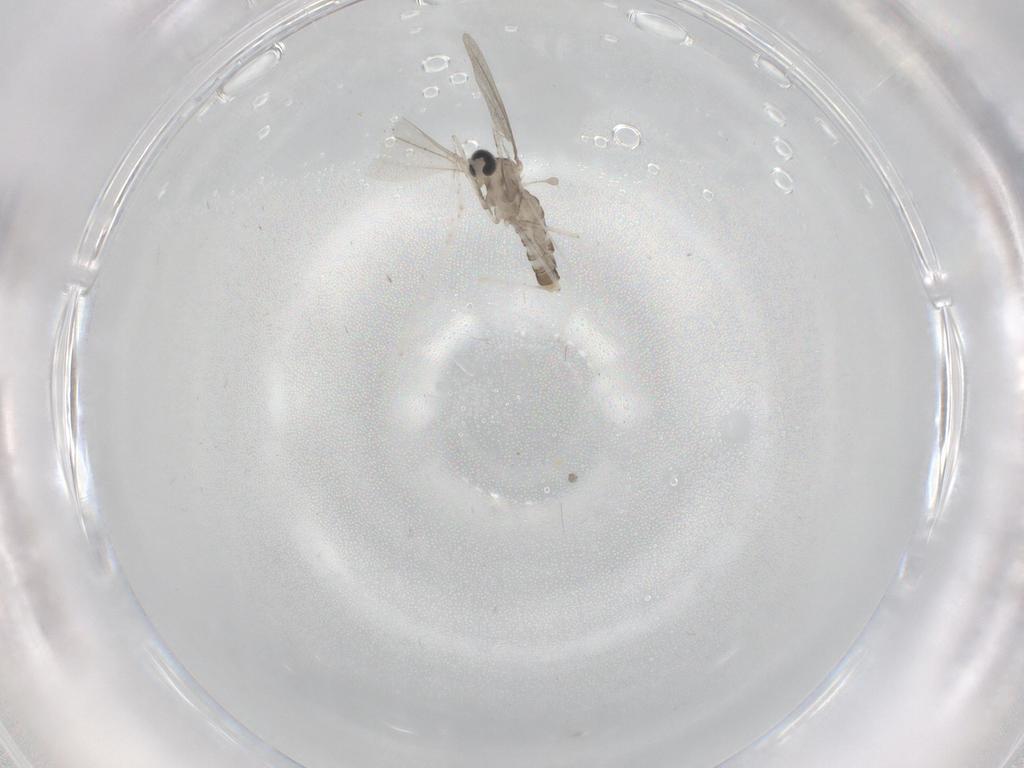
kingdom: Animalia
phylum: Arthropoda
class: Insecta
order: Diptera
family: Cecidomyiidae
